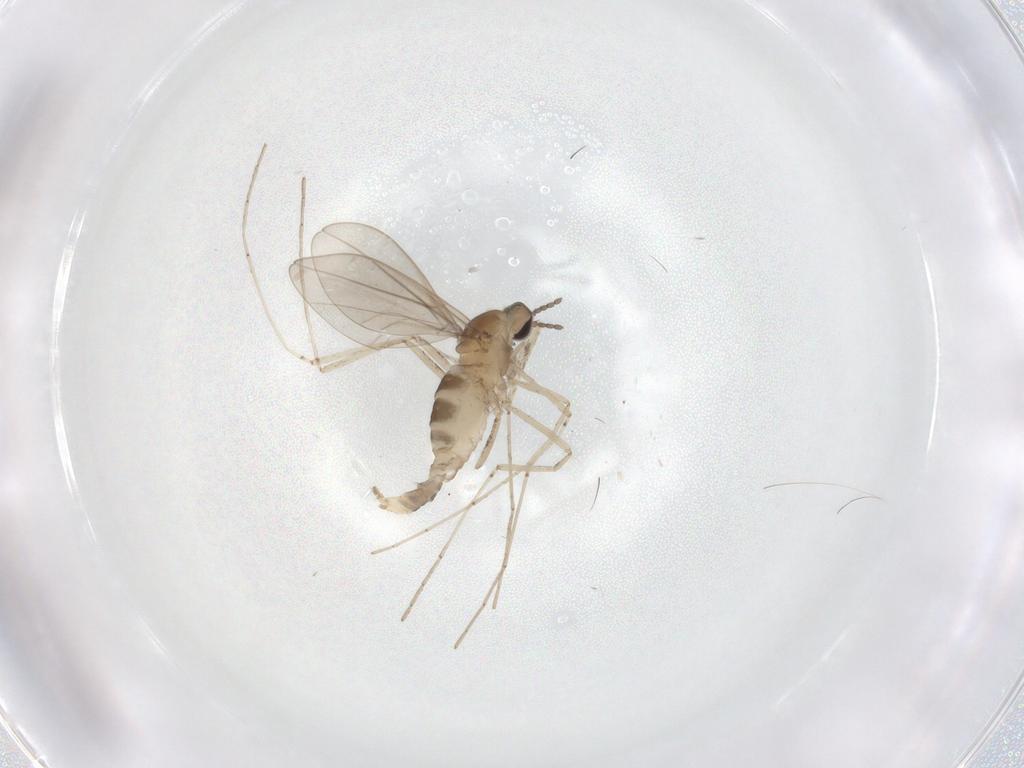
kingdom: Animalia
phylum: Arthropoda
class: Insecta
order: Diptera
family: Cecidomyiidae
